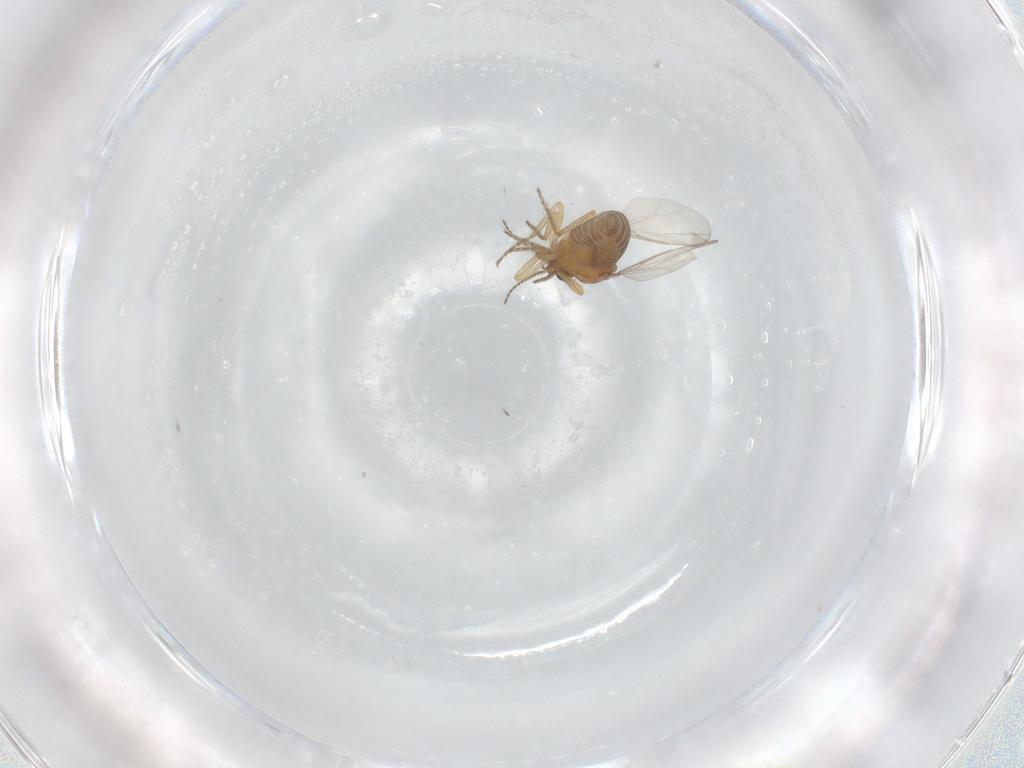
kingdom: Animalia
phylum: Arthropoda
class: Insecta
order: Diptera
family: Ceratopogonidae
